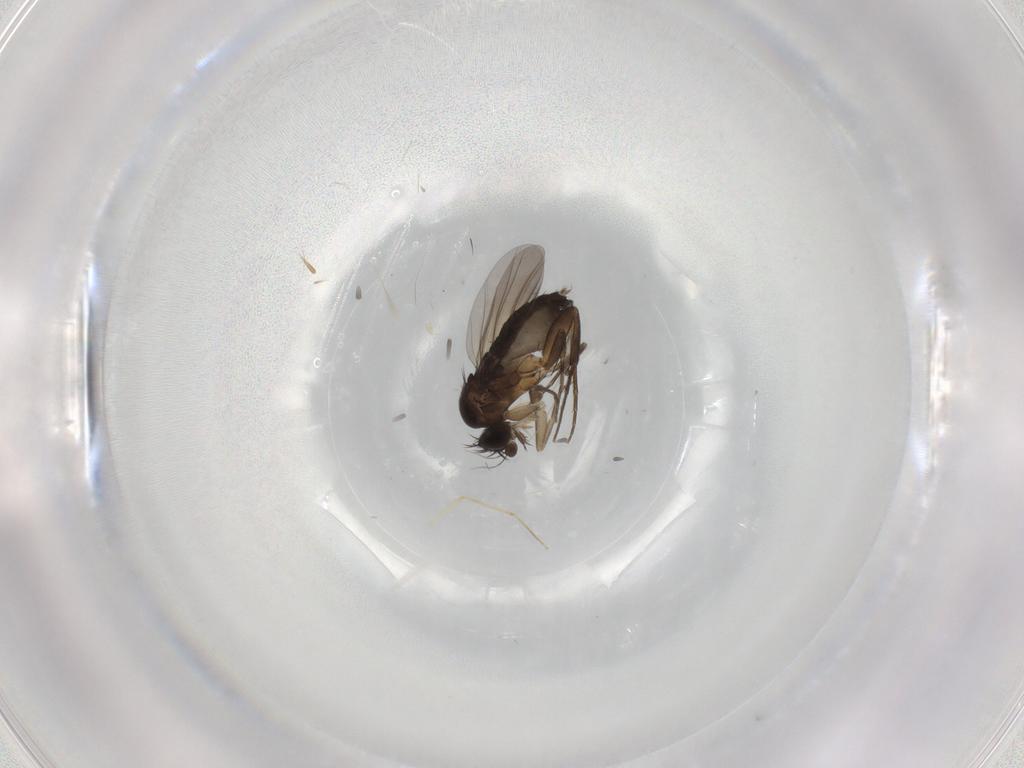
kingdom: Animalia
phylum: Arthropoda
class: Insecta
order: Diptera
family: Phoridae
